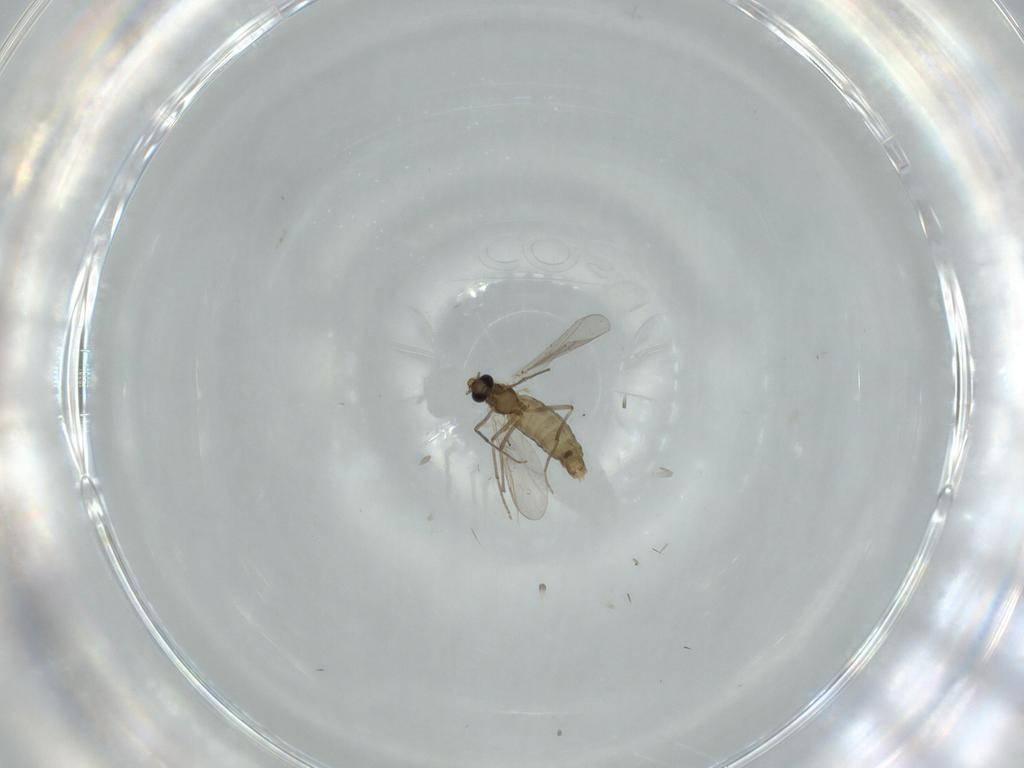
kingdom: Animalia
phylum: Arthropoda
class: Insecta
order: Diptera
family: Chironomidae
